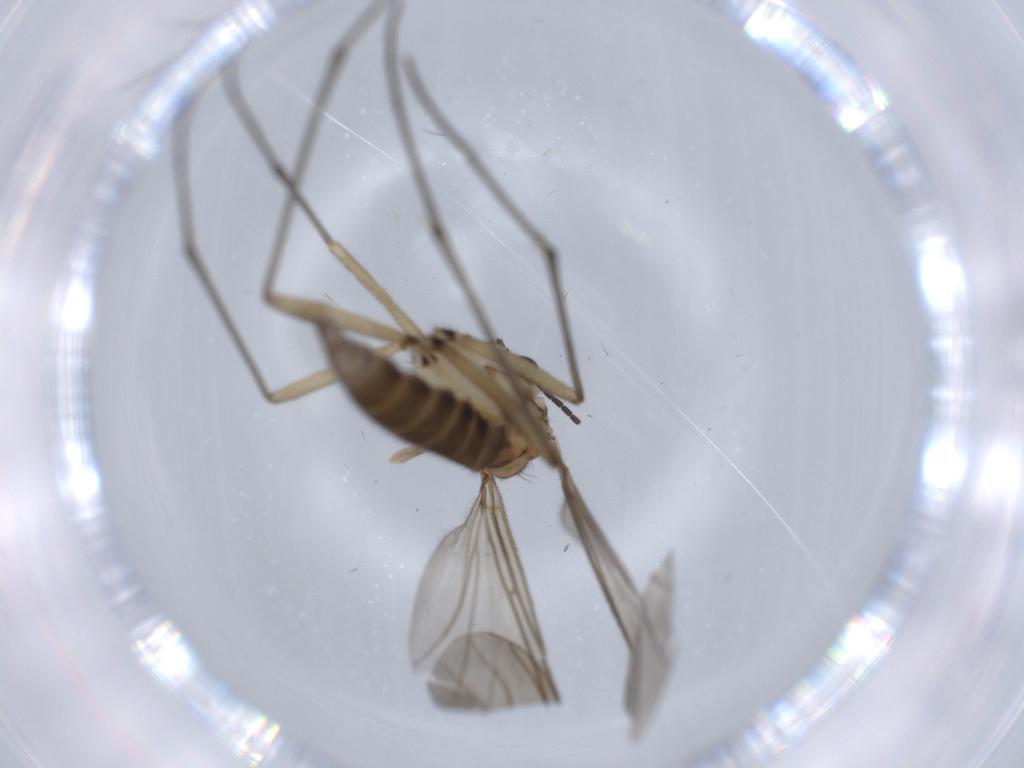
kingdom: Animalia
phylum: Arthropoda
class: Insecta
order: Diptera
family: Sciaridae
